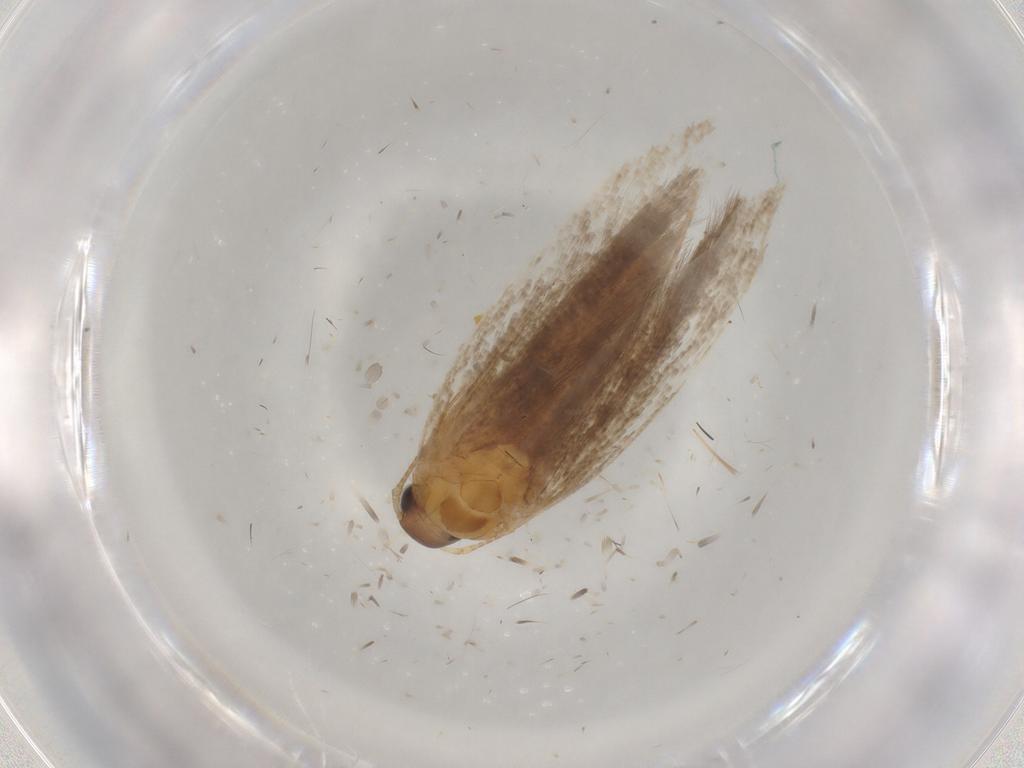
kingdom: Animalia
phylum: Arthropoda
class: Insecta
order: Lepidoptera
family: Gelechiidae
